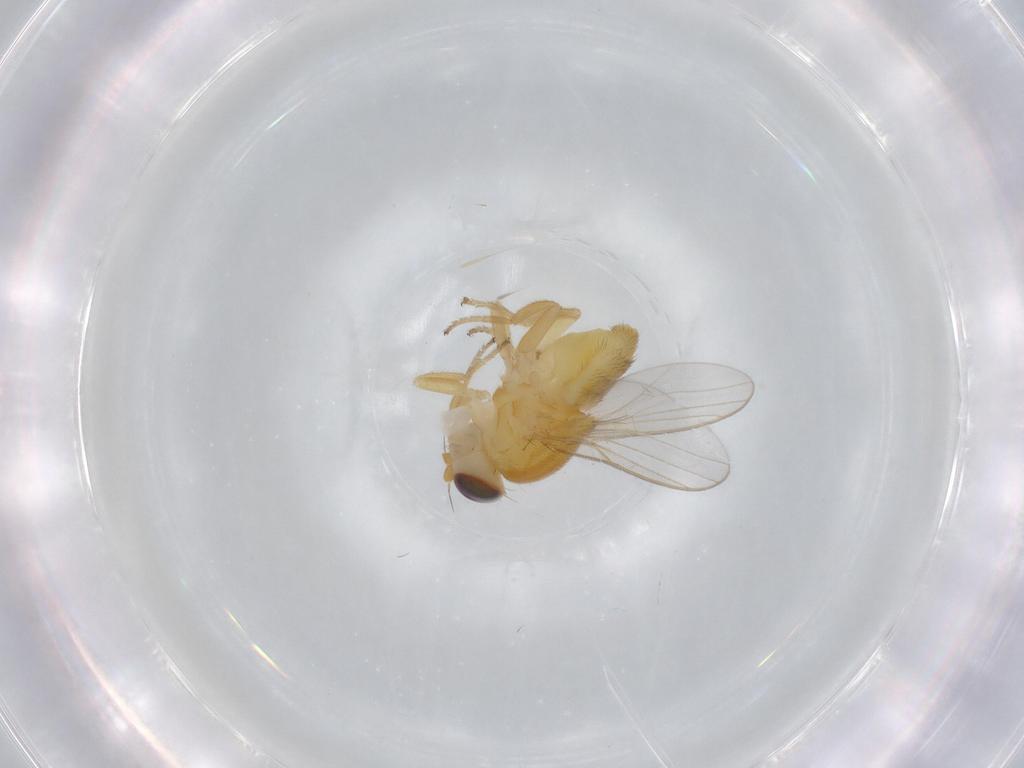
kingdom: Animalia
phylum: Arthropoda
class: Insecta
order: Diptera
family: Chloropidae
